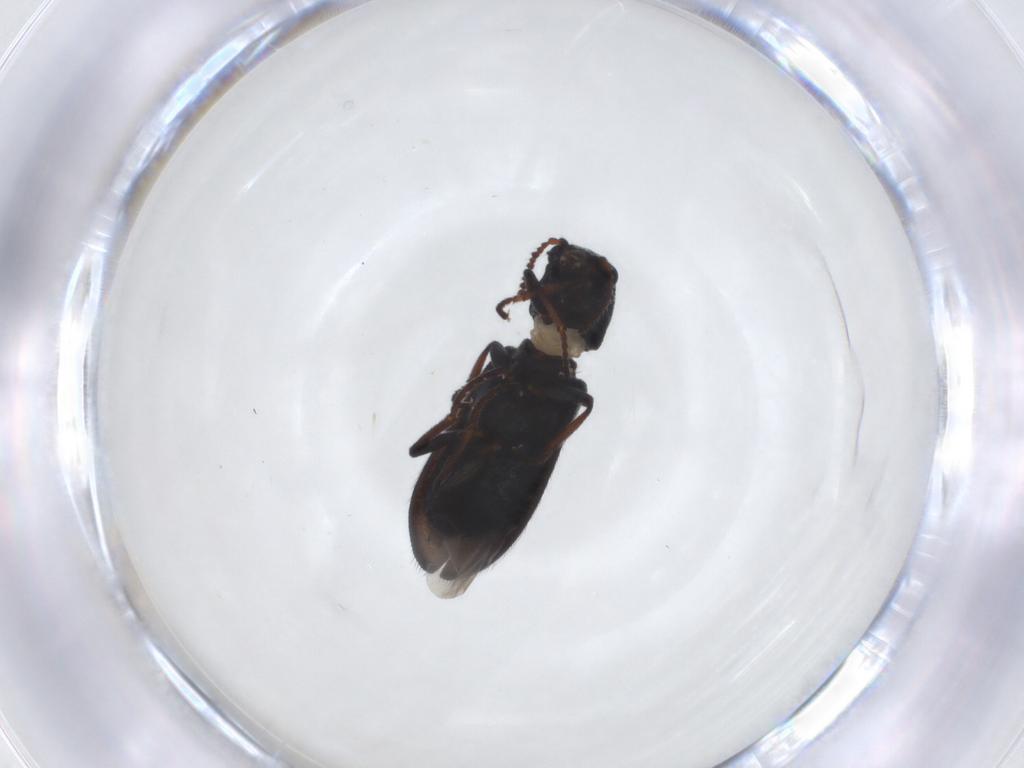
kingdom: Animalia
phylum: Arthropoda
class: Insecta
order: Coleoptera
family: Melyridae
